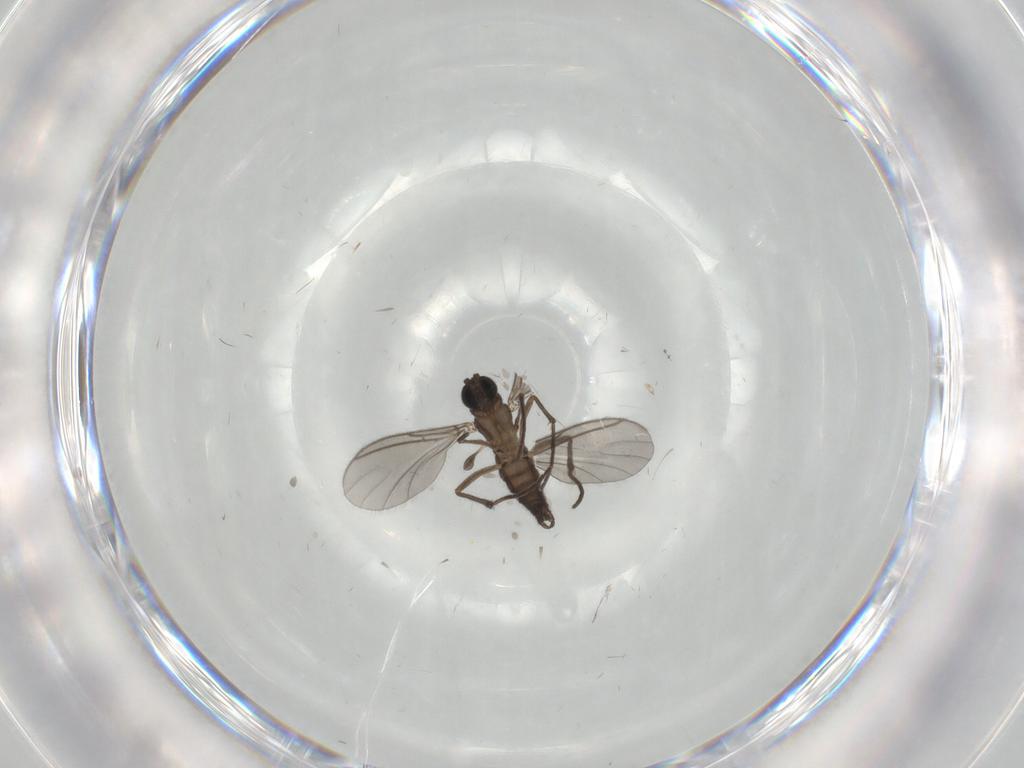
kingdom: Animalia
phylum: Arthropoda
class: Insecta
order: Diptera
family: Sciaridae
